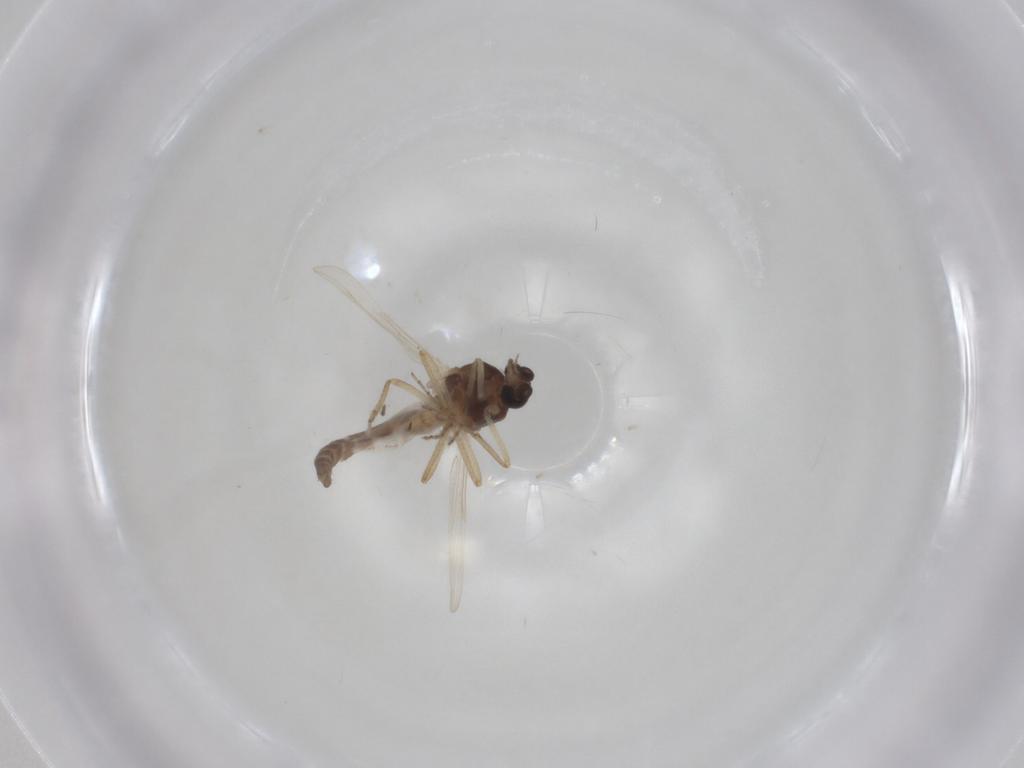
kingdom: Animalia
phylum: Arthropoda
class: Insecta
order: Diptera
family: Ceratopogonidae
